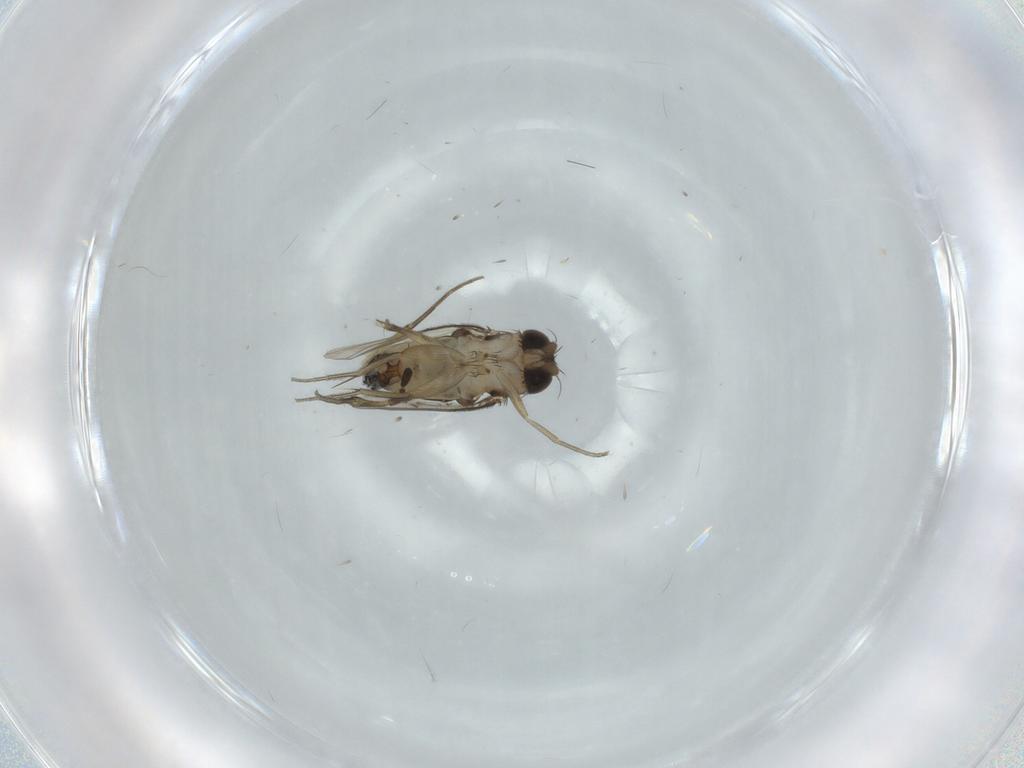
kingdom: Animalia
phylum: Arthropoda
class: Insecta
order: Diptera
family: Phoridae
